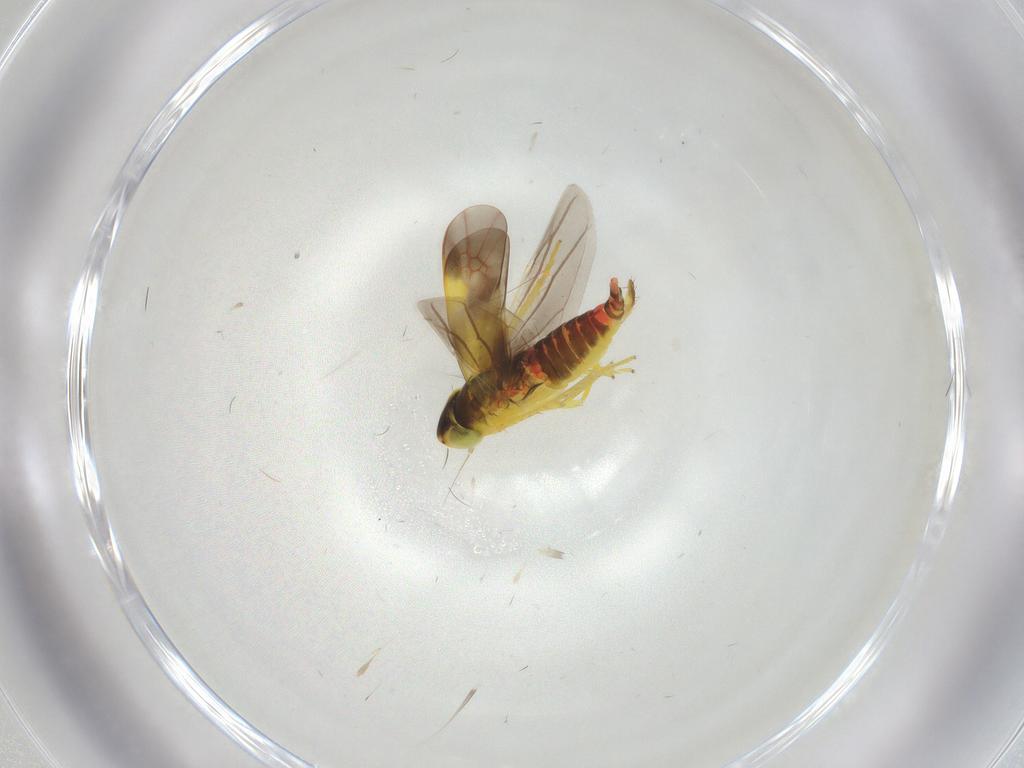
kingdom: Animalia
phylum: Arthropoda
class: Insecta
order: Hemiptera
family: Cicadellidae
